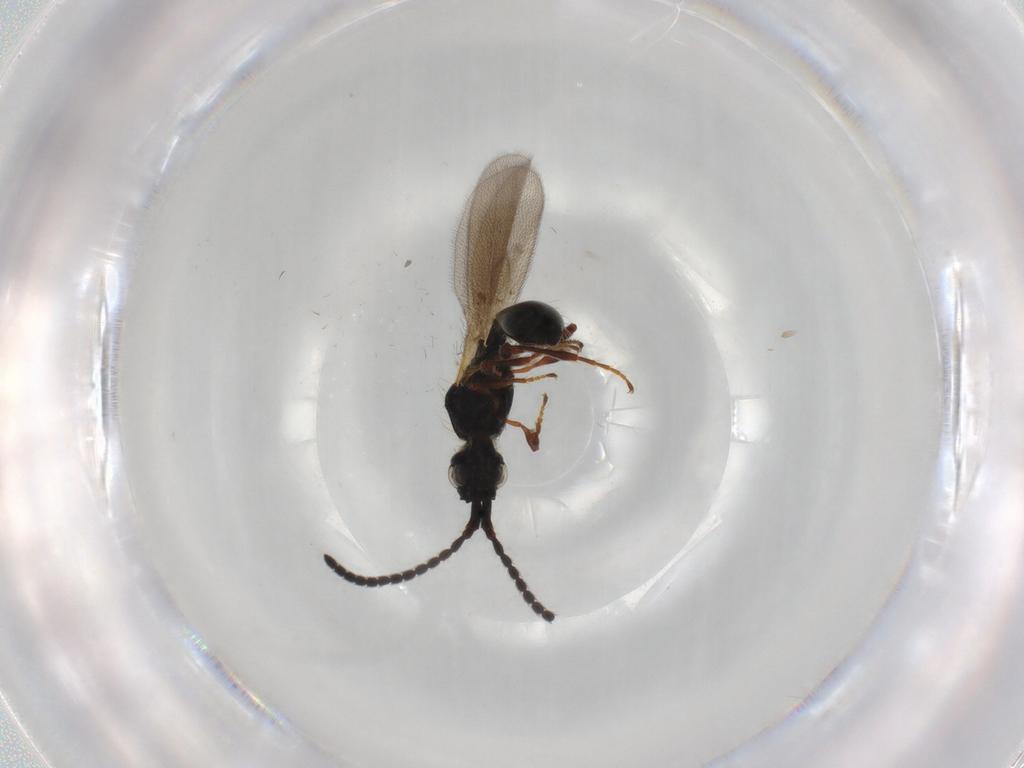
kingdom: Animalia
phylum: Arthropoda
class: Insecta
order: Hymenoptera
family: Diapriidae
